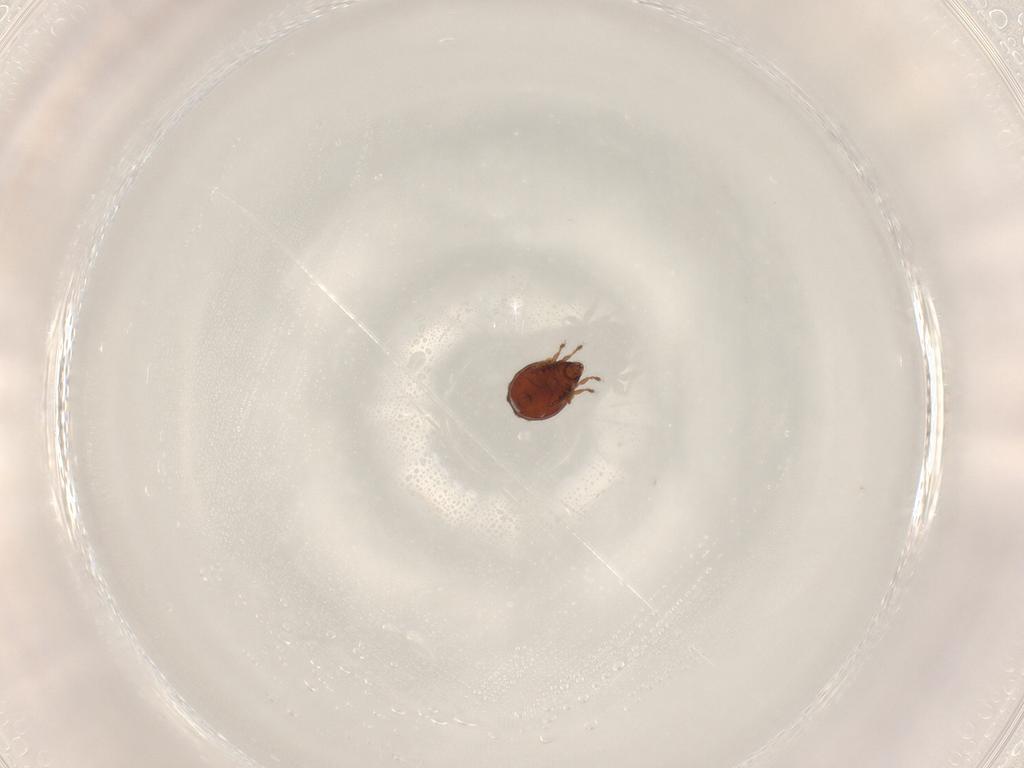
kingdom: Animalia
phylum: Arthropoda
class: Arachnida
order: Sarcoptiformes
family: Ceratozetidae
